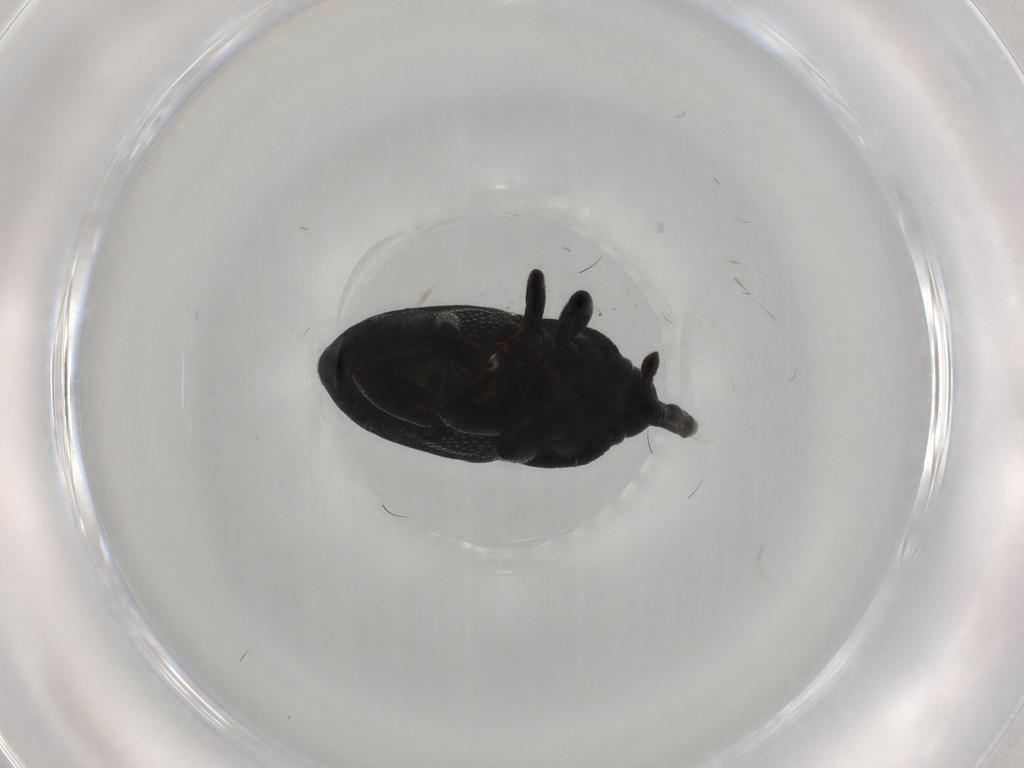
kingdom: Animalia
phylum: Arthropoda
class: Insecta
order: Coleoptera
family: Curculionidae
